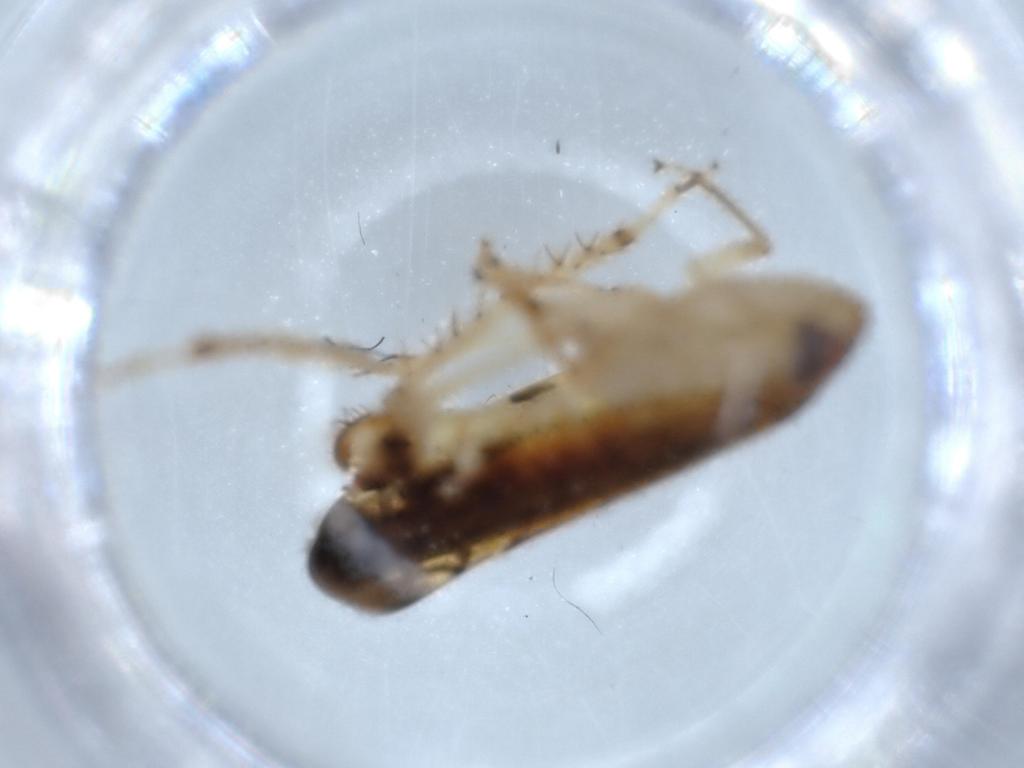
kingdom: Animalia
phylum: Arthropoda
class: Insecta
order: Hemiptera
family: Cicadellidae
